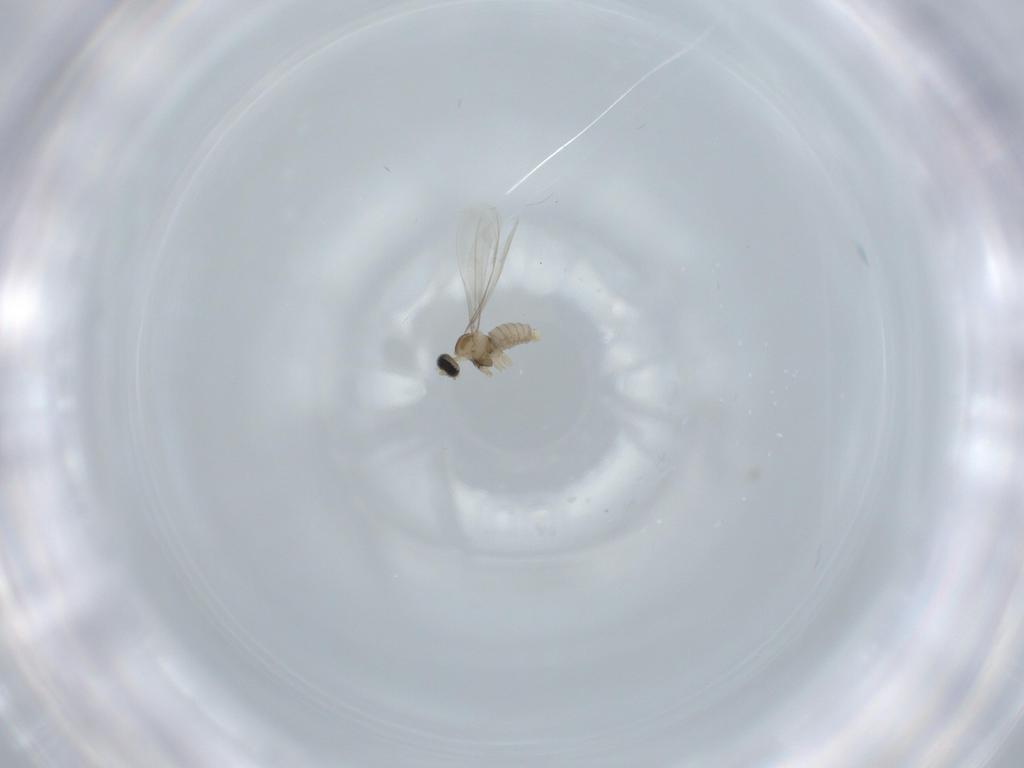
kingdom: Animalia
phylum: Arthropoda
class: Insecta
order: Diptera
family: Cecidomyiidae
